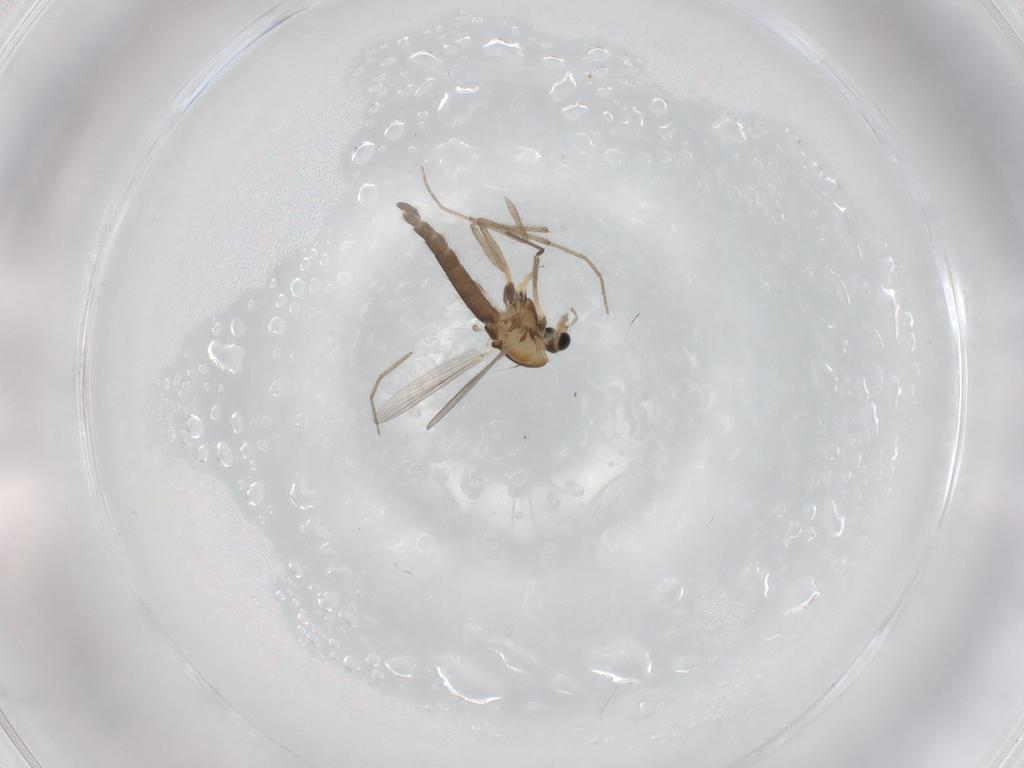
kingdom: Animalia
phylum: Arthropoda
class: Insecta
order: Diptera
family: Chironomidae
